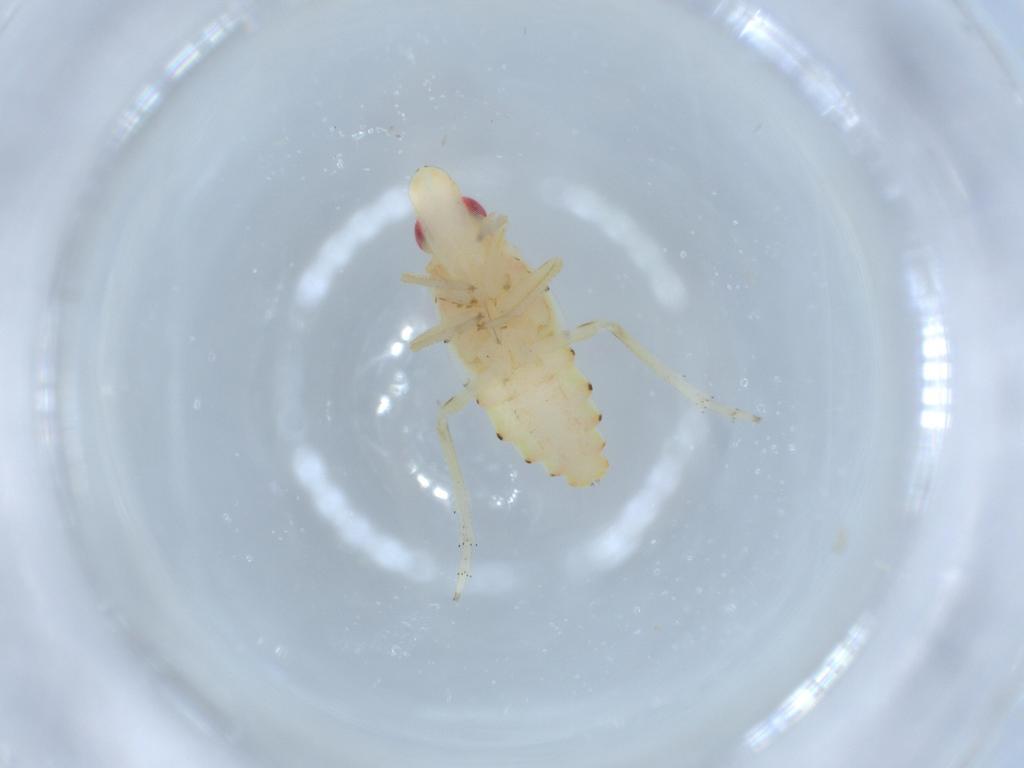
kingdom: Animalia
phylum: Arthropoda
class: Insecta
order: Hemiptera
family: Tropiduchidae
